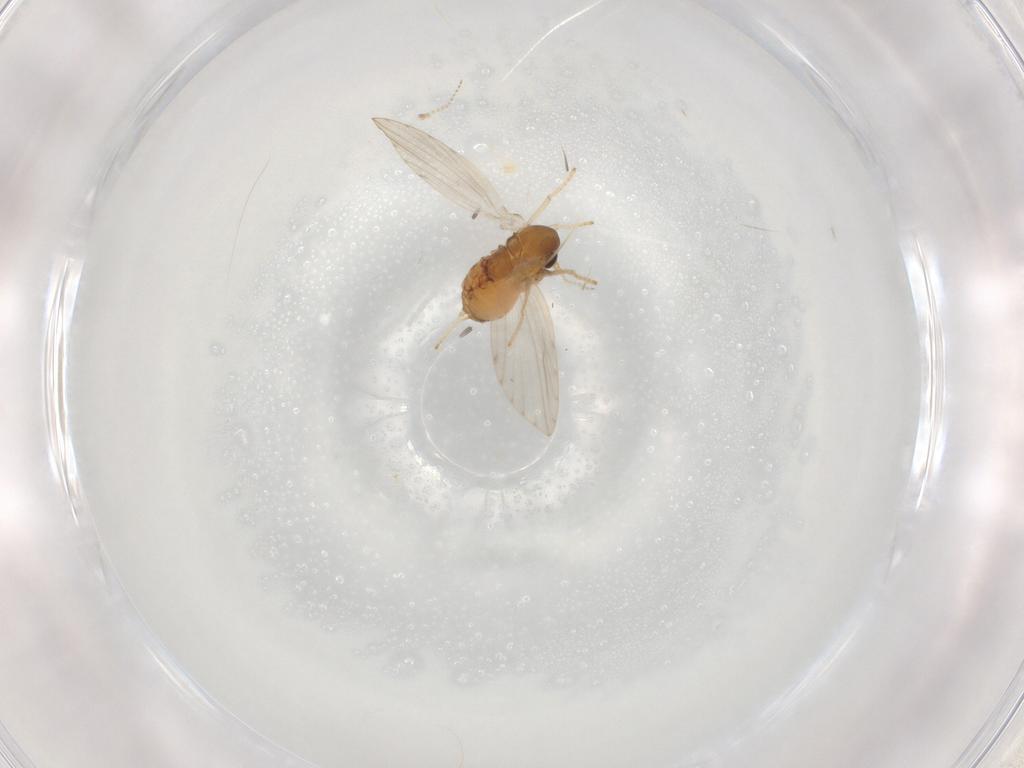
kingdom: Animalia
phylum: Arthropoda
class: Insecta
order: Diptera
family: Psychodidae
